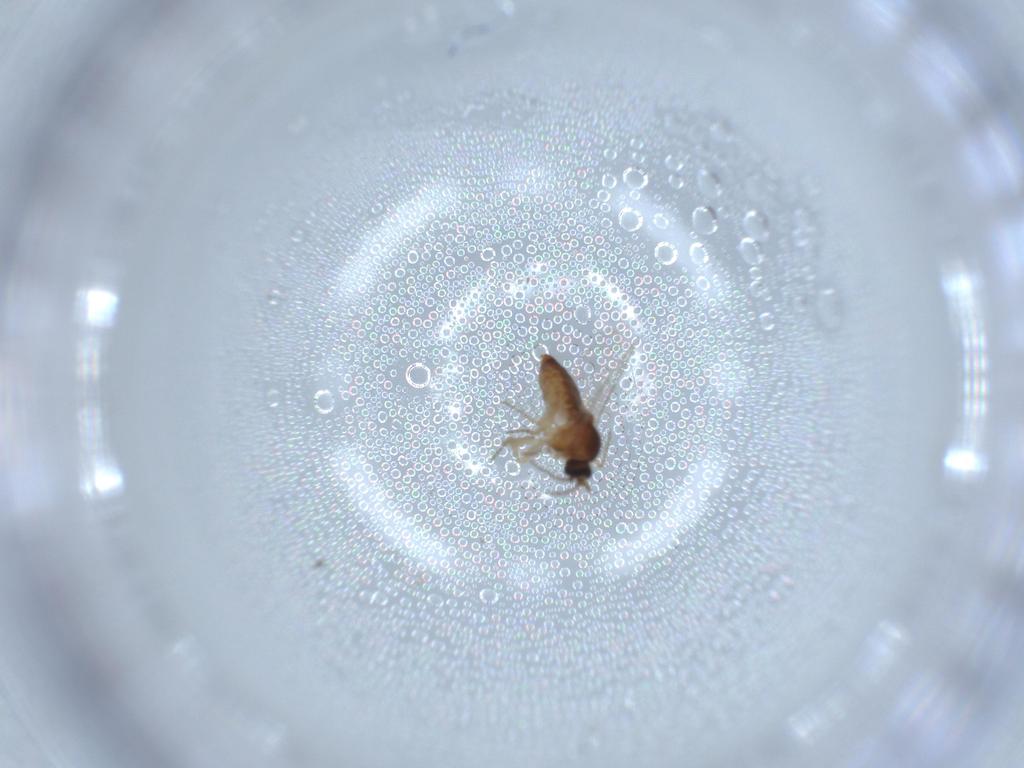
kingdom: Animalia
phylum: Arthropoda
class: Insecta
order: Diptera
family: Ceratopogonidae
